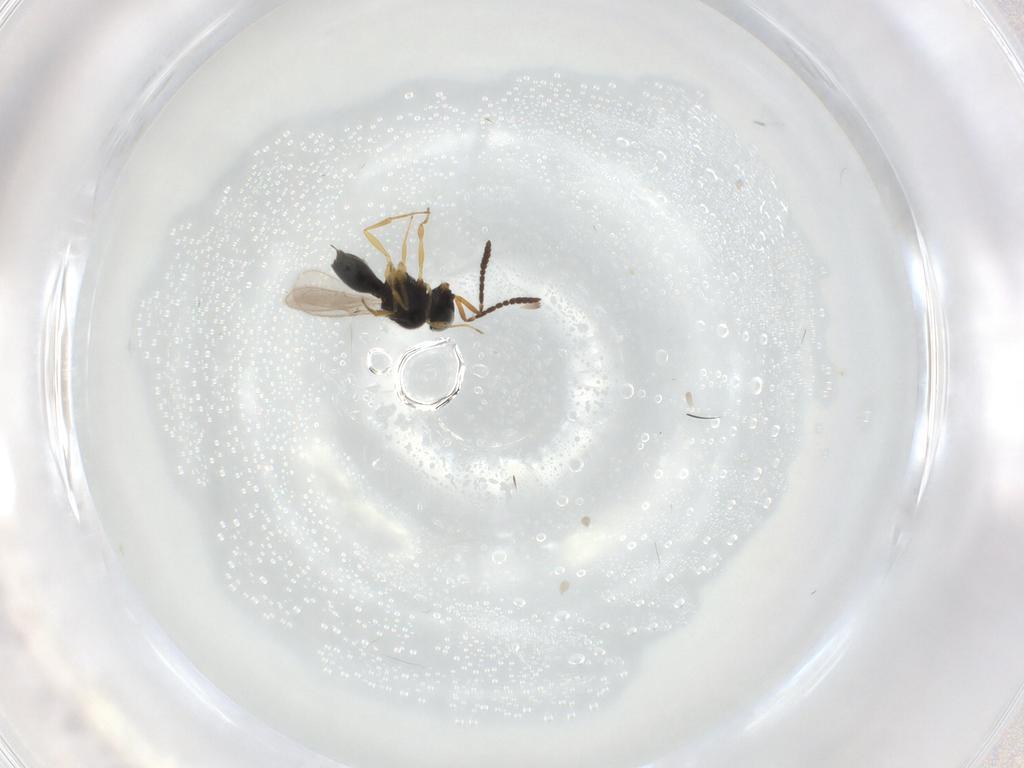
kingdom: Animalia
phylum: Arthropoda
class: Insecta
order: Hymenoptera
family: Scelionidae
